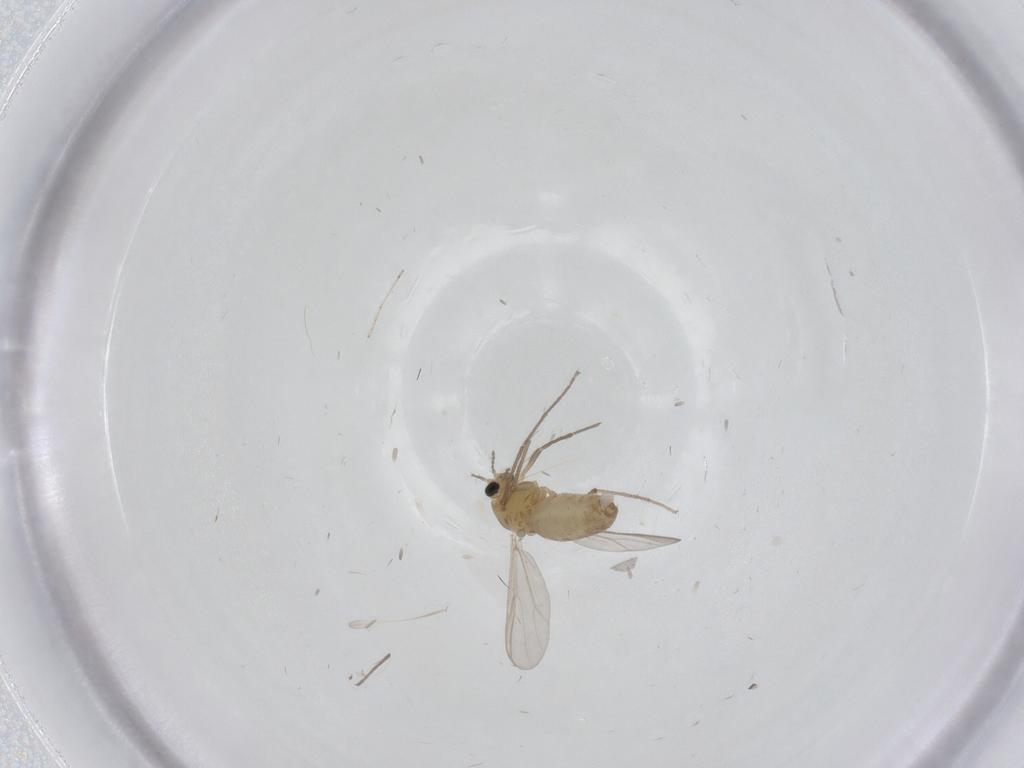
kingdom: Animalia
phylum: Arthropoda
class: Insecta
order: Diptera
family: Chironomidae
